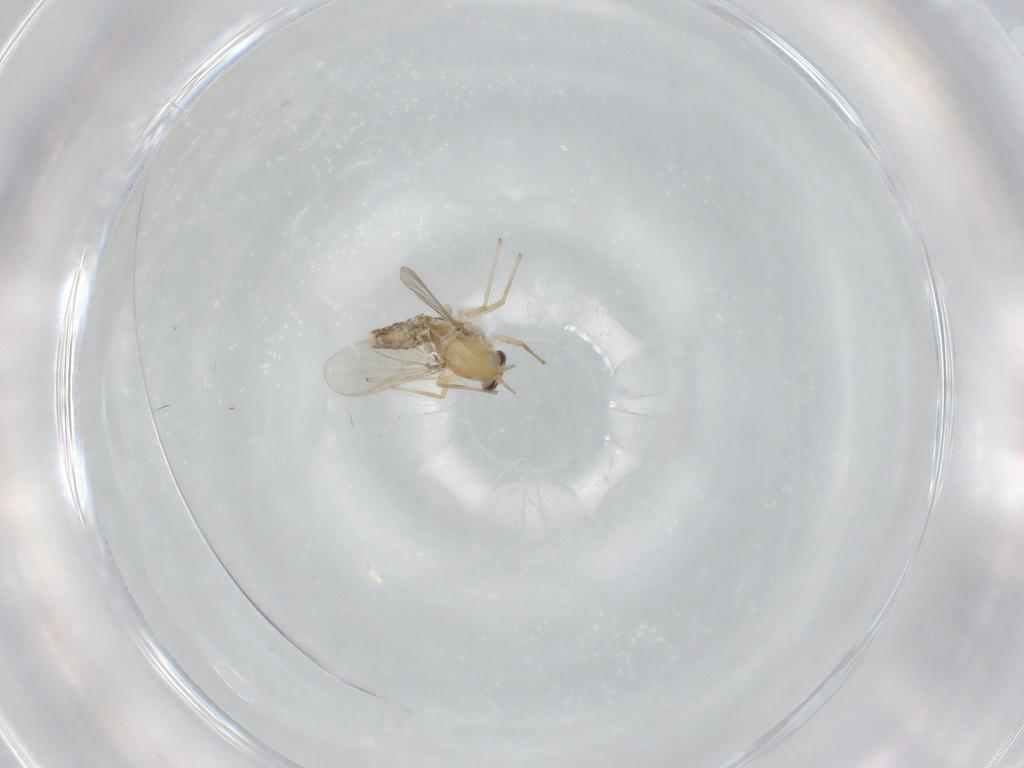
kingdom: Animalia
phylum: Arthropoda
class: Insecta
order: Diptera
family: Chironomidae
